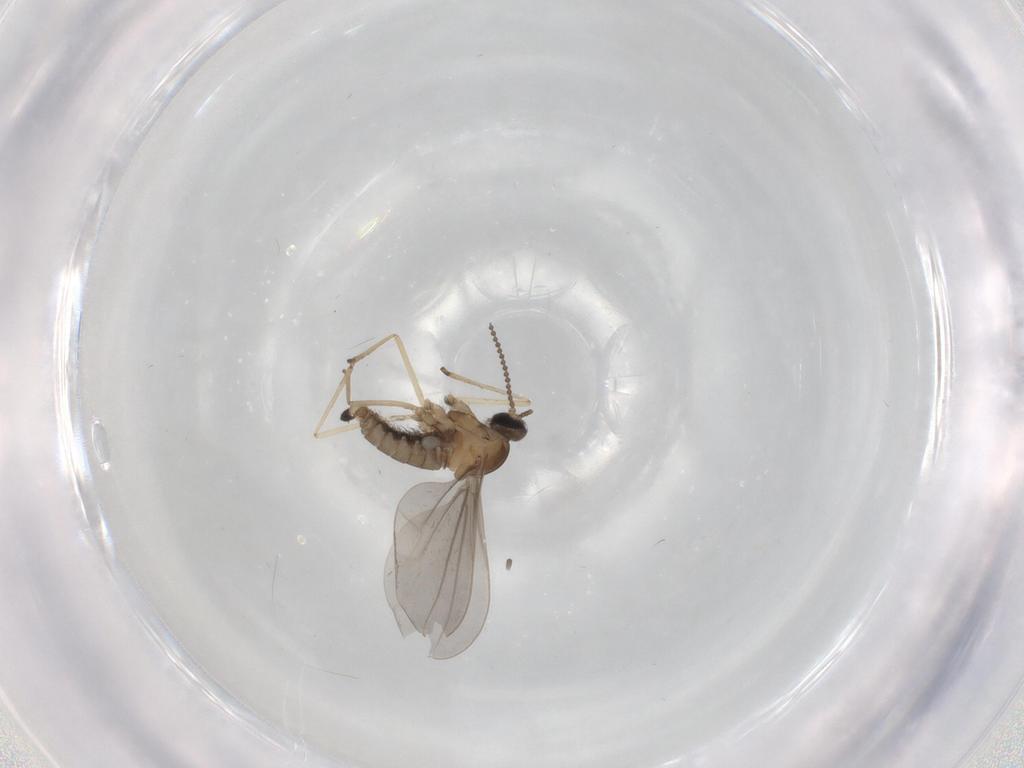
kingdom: Animalia
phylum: Arthropoda
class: Insecta
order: Diptera
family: Cecidomyiidae
